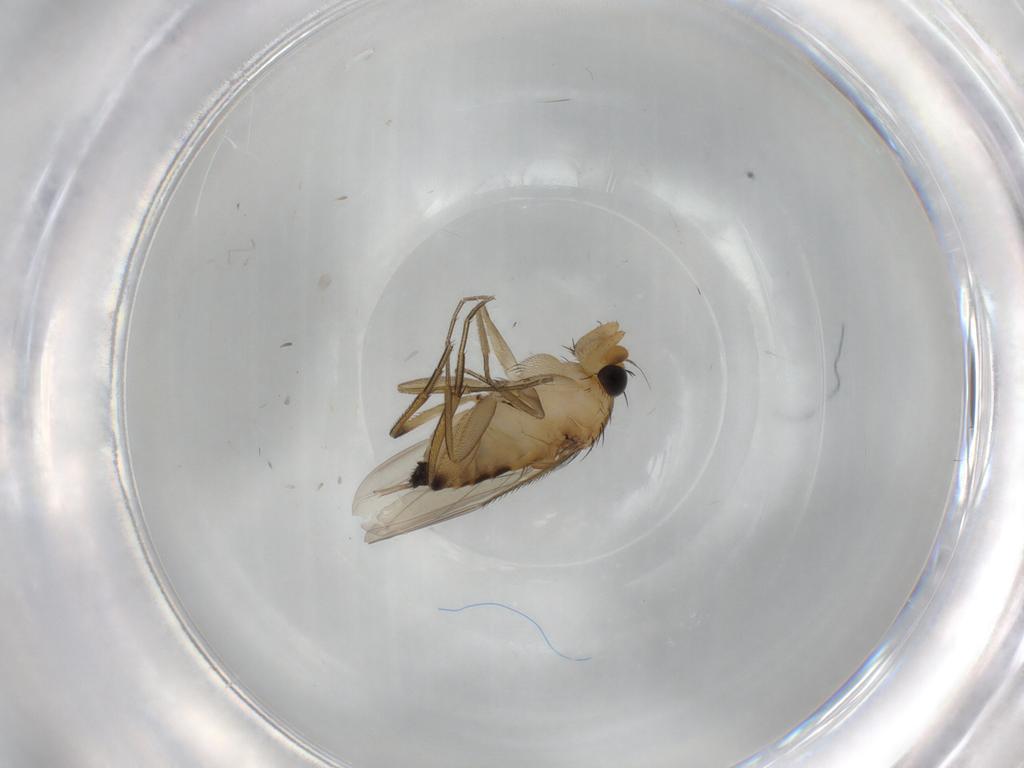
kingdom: Animalia
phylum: Arthropoda
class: Insecta
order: Diptera
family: Phoridae
